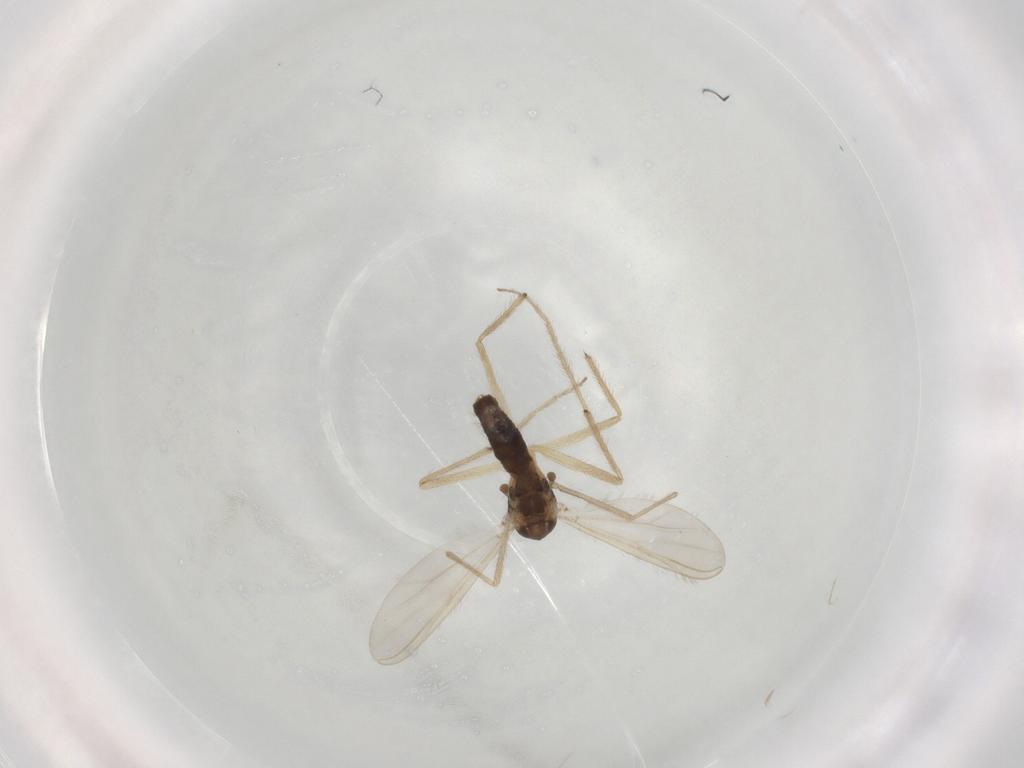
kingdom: Animalia
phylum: Arthropoda
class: Insecta
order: Diptera
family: Chironomidae
